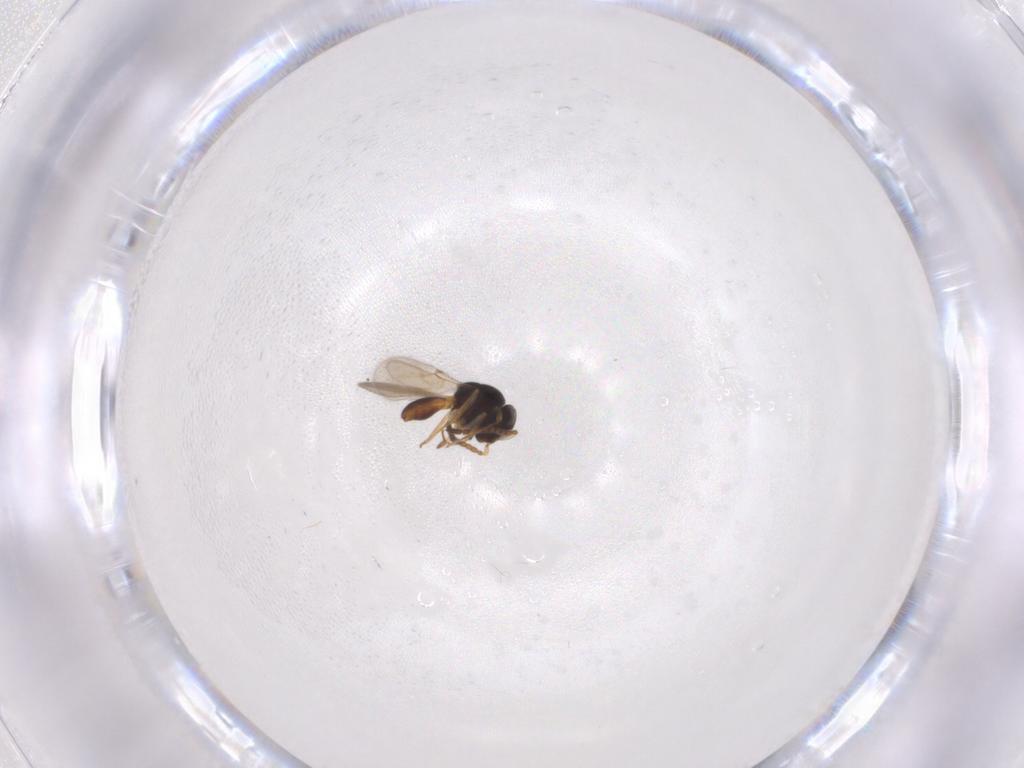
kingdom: Animalia
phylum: Arthropoda
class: Insecta
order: Hymenoptera
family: Scelionidae
